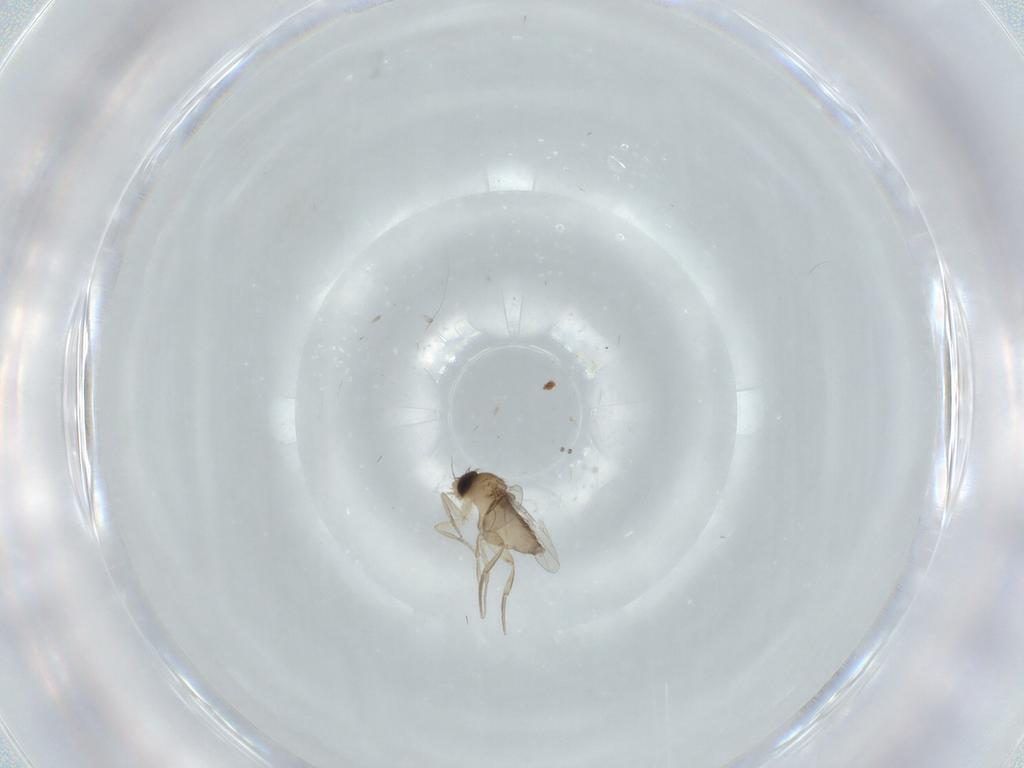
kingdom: Animalia
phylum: Arthropoda
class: Insecta
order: Diptera
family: Phoridae
